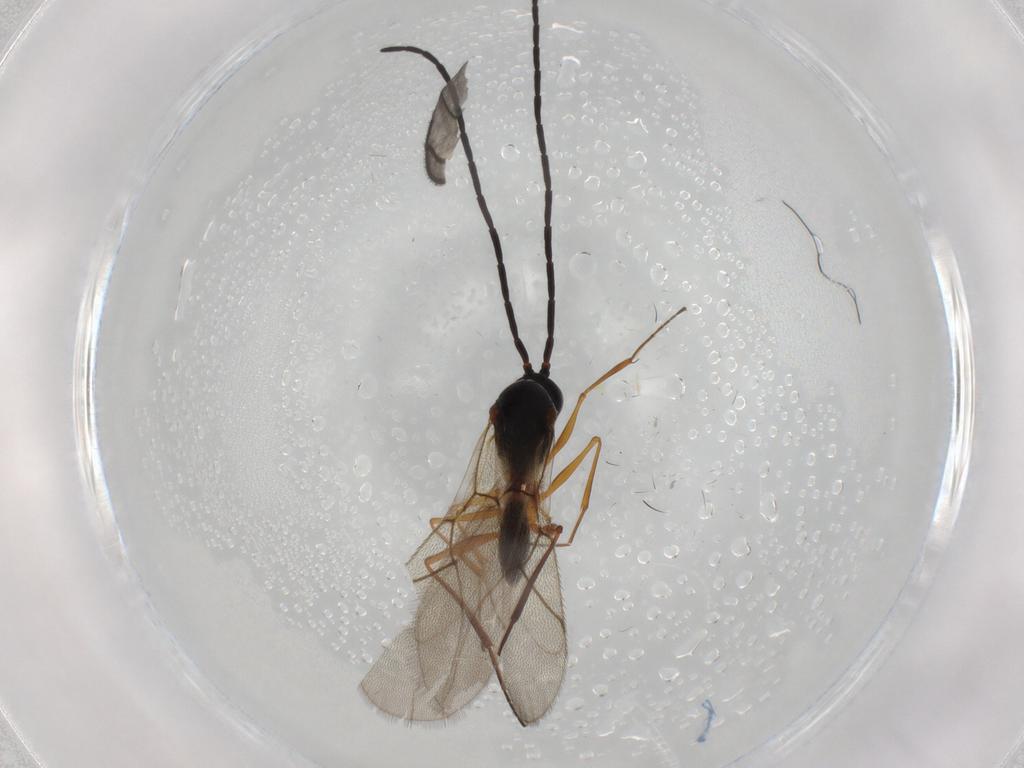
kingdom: Animalia
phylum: Arthropoda
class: Insecta
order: Hymenoptera
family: Figitidae
